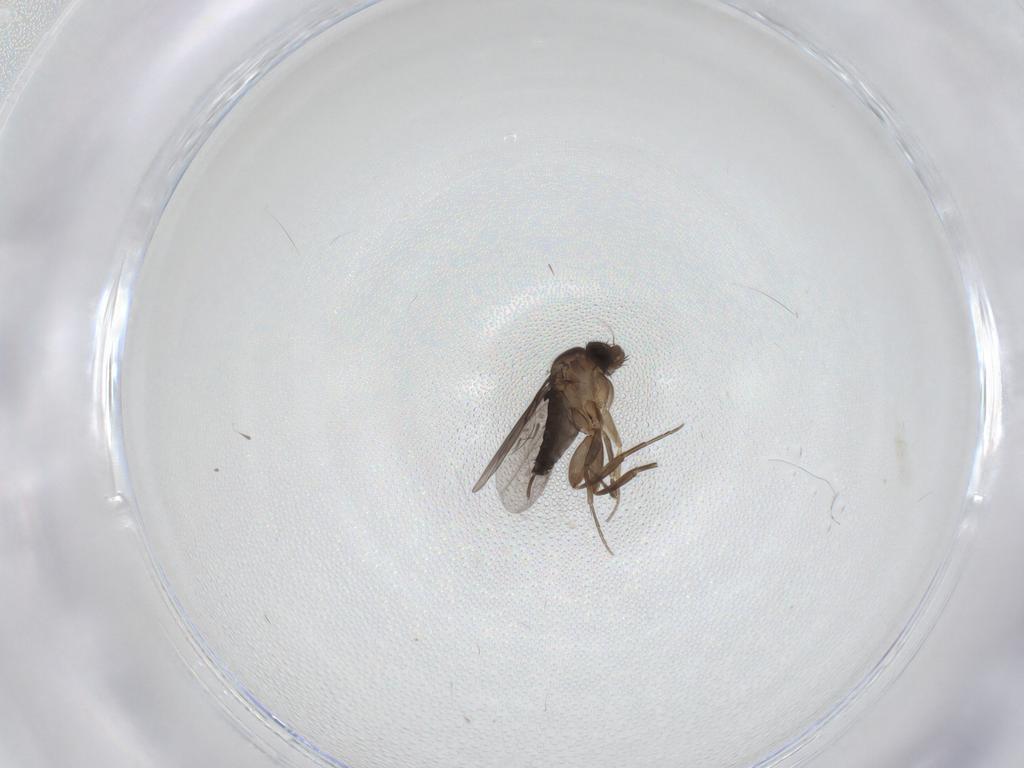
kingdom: Animalia
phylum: Arthropoda
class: Insecta
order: Diptera
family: Phoridae
